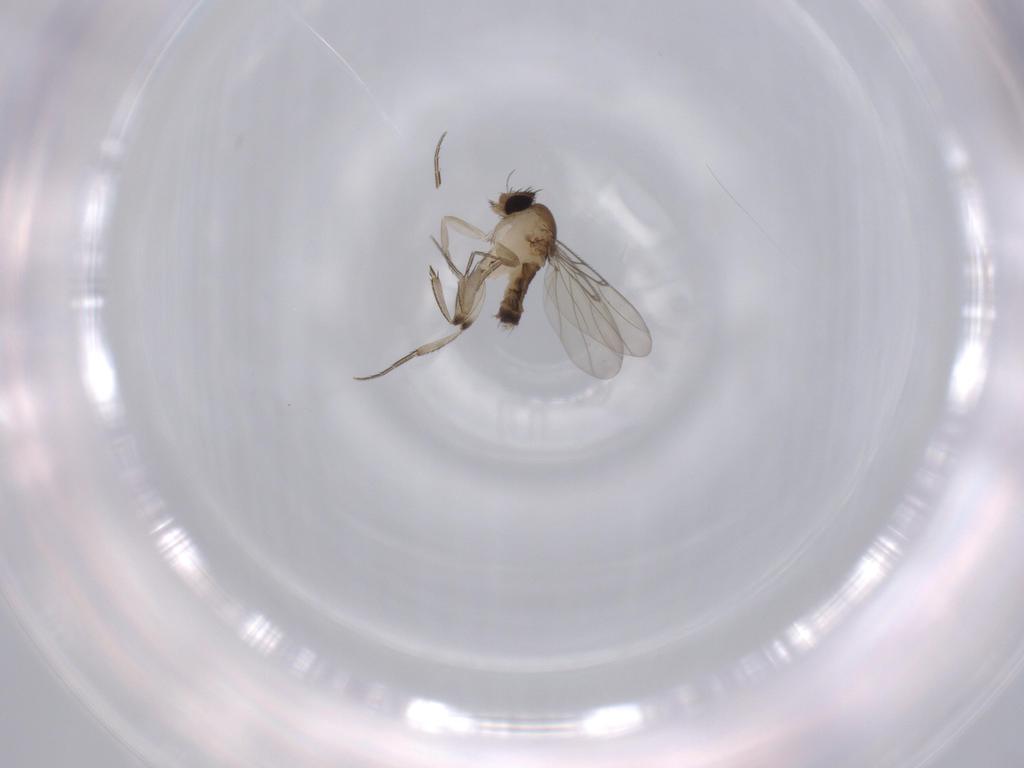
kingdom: Animalia
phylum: Arthropoda
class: Insecta
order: Diptera
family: Phoridae
